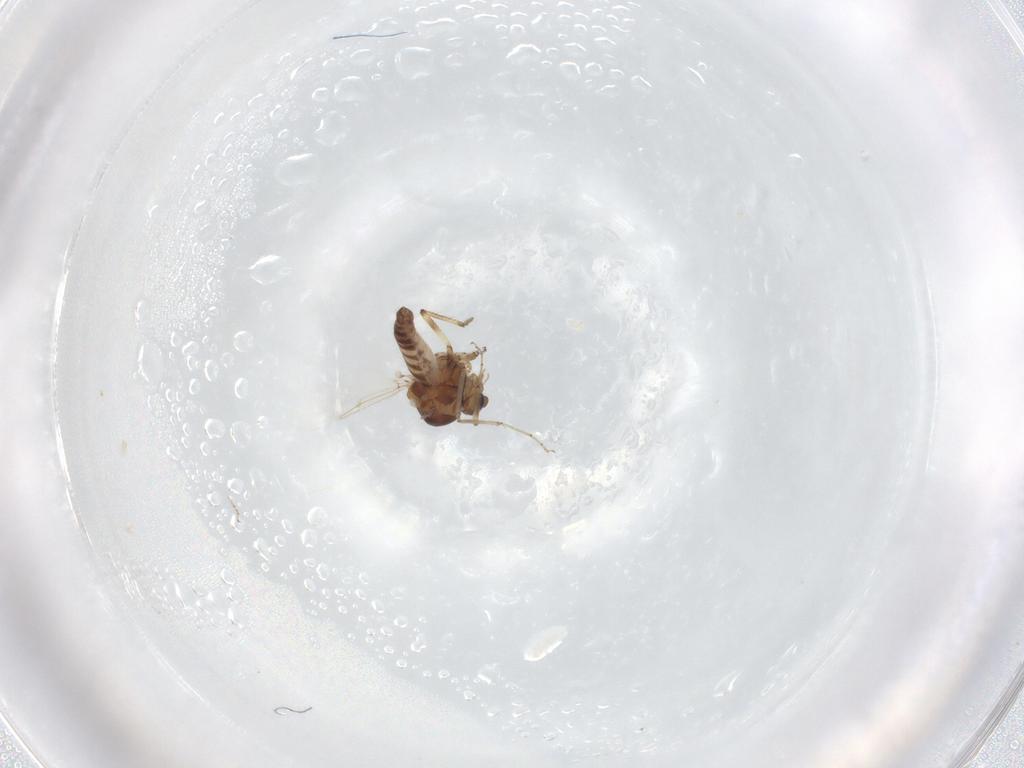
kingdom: Animalia
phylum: Arthropoda
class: Insecta
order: Diptera
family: Ceratopogonidae
